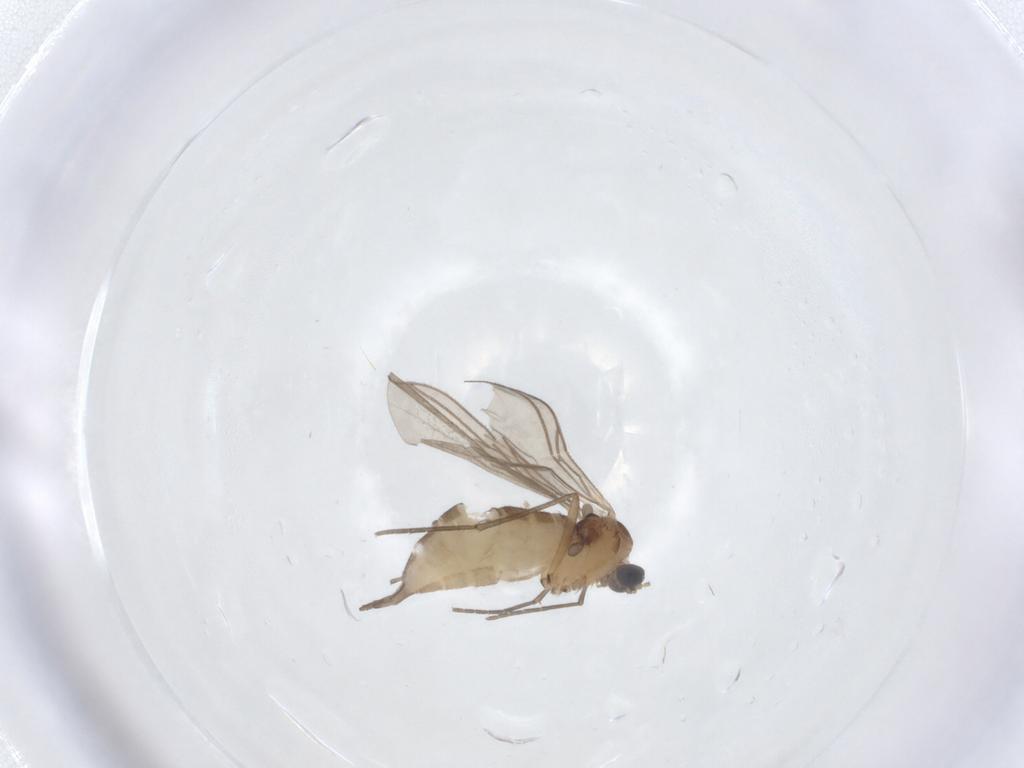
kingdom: Animalia
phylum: Arthropoda
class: Insecta
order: Diptera
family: Sciaridae
